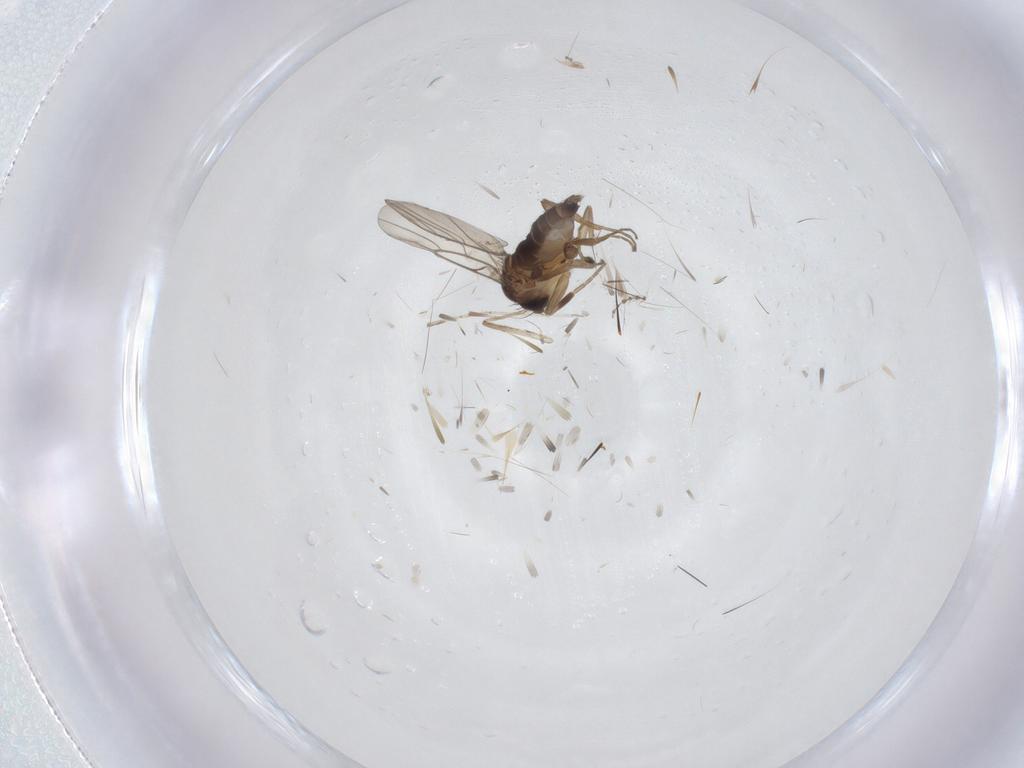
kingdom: Animalia
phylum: Arthropoda
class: Insecta
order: Diptera
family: Phoridae
